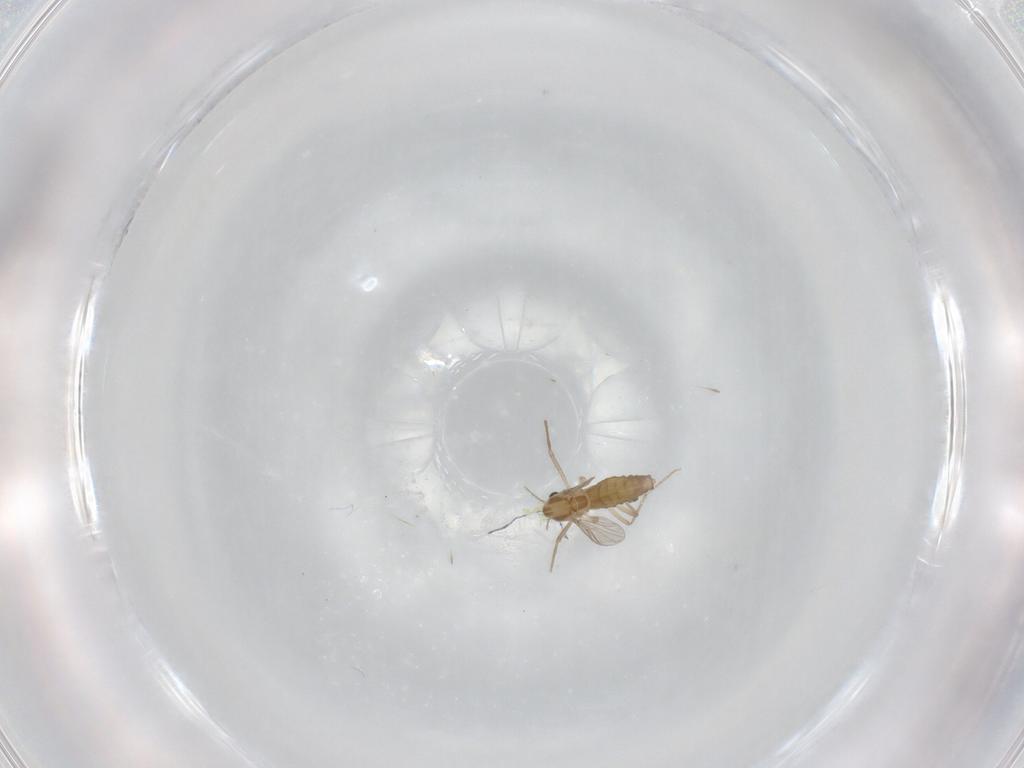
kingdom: Animalia
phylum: Arthropoda
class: Insecta
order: Diptera
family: Chironomidae
